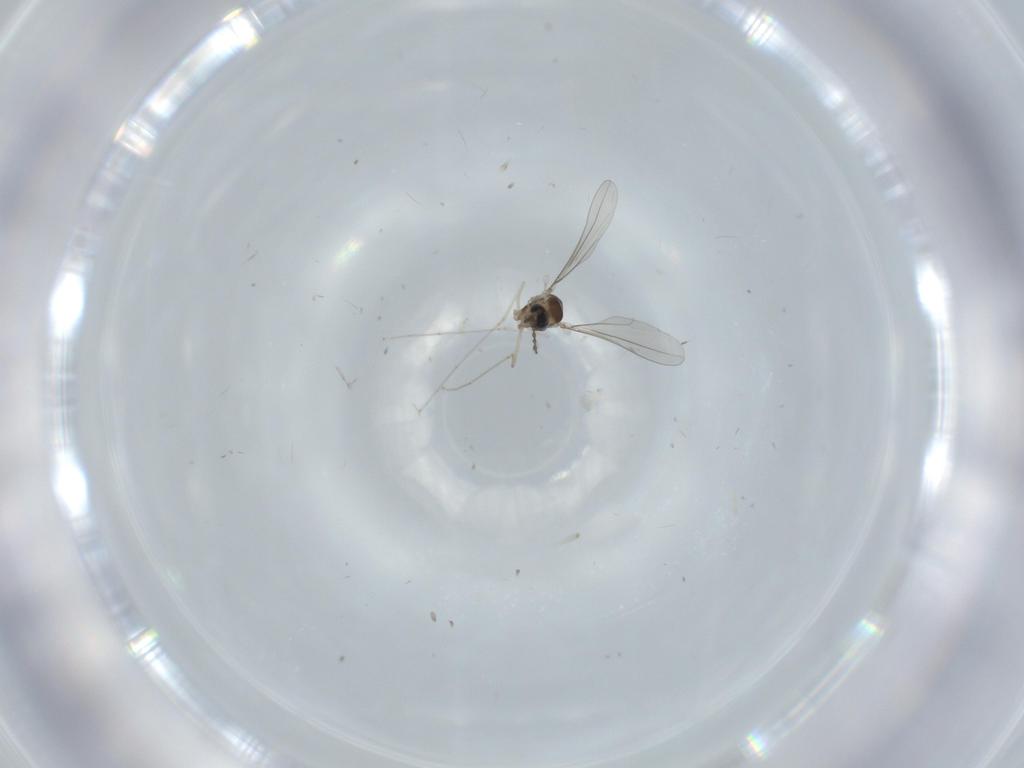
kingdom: Animalia
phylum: Arthropoda
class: Insecta
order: Diptera
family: Cecidomyiidae
